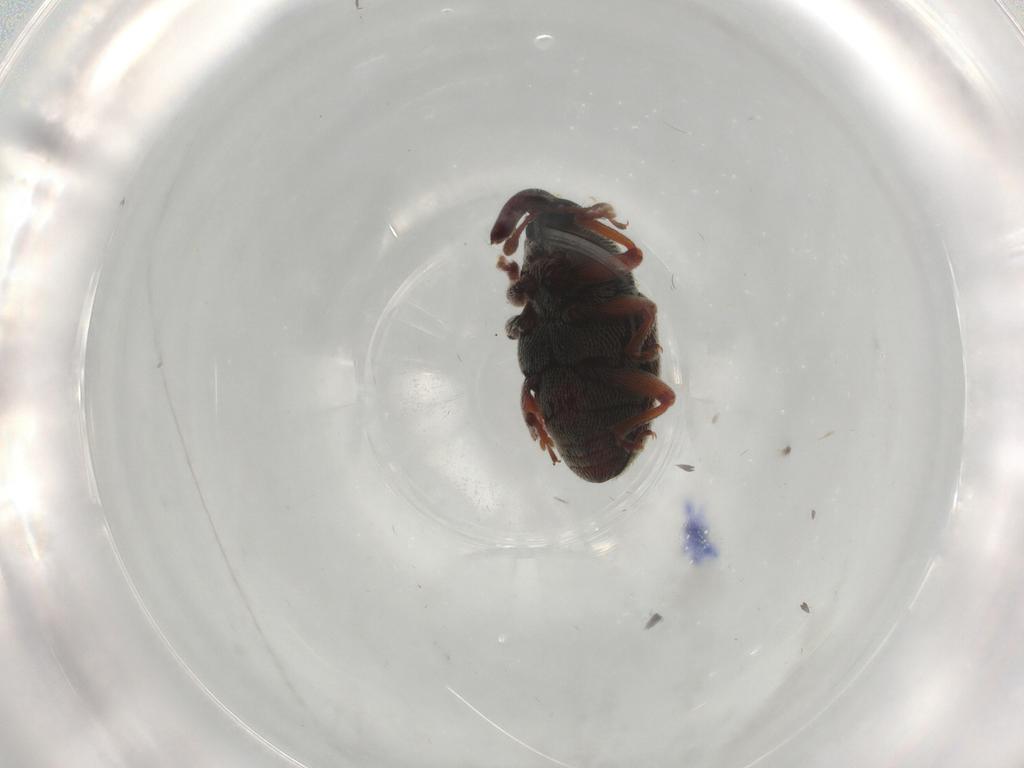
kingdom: Animalia
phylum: Arthropoda
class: Insecta
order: Coleoptera
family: Curculionidae
